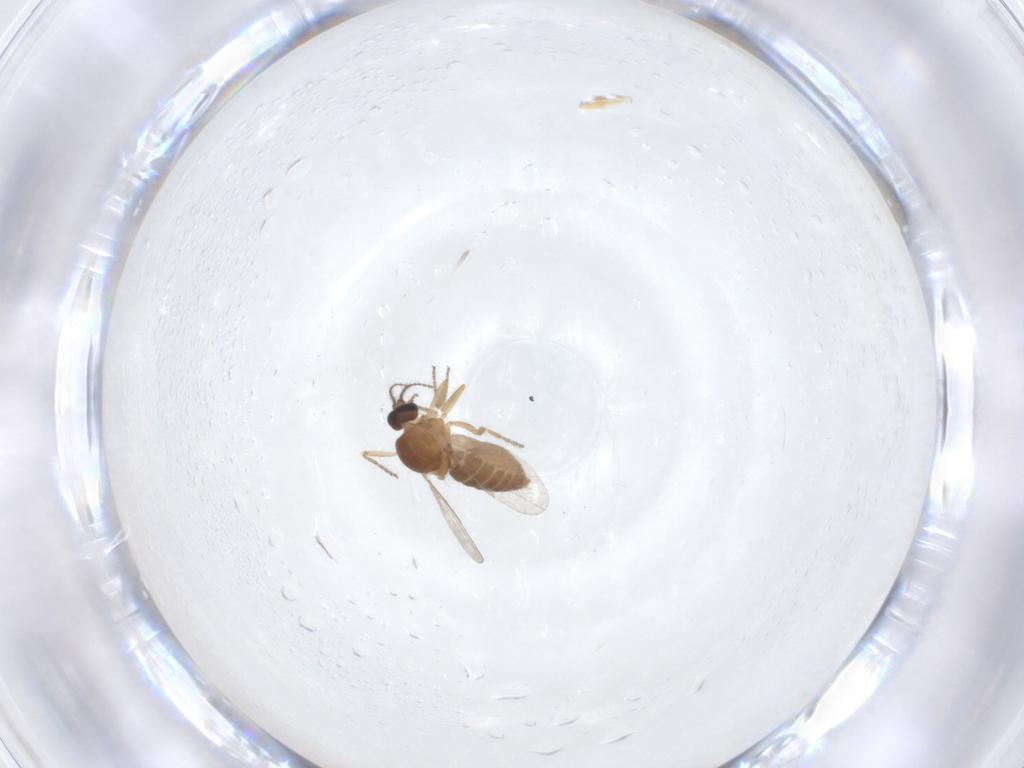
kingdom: Animalia
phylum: Arthropoda
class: Insecta
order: Diptera
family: Ceratopogonidae
